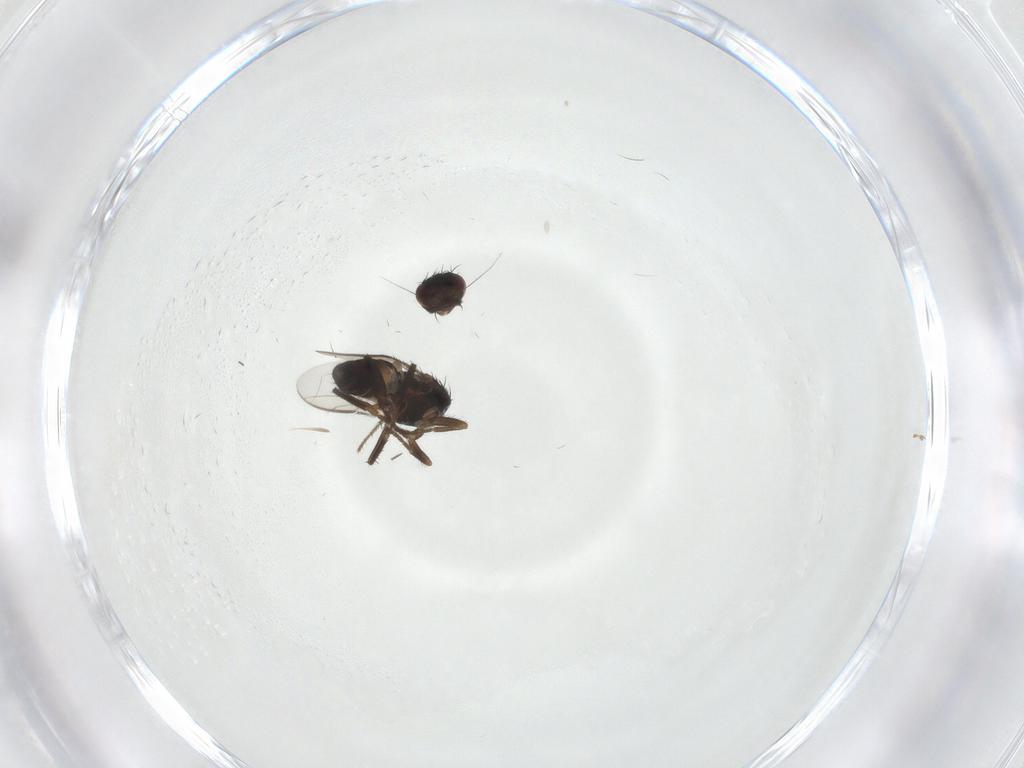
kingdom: Animalia
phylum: Arthropoda
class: Insecta
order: Diptera
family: Sphaeroceridae
